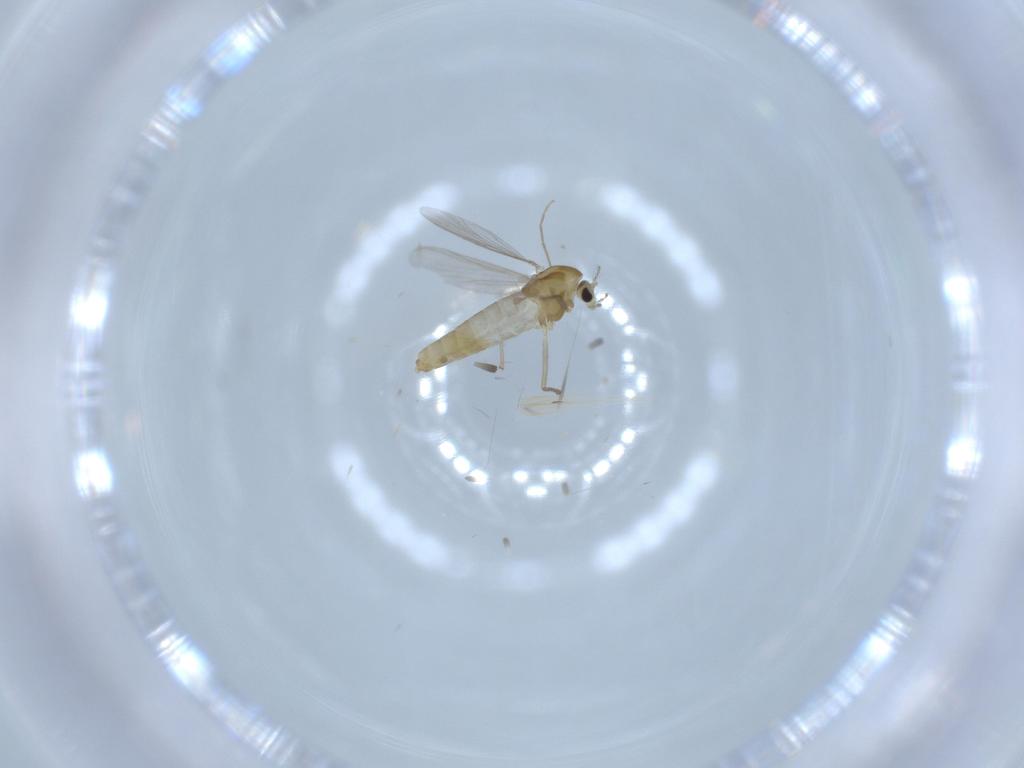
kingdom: Animalia
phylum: Arthropoda
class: Insecta
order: Diptera
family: Chironomidae
